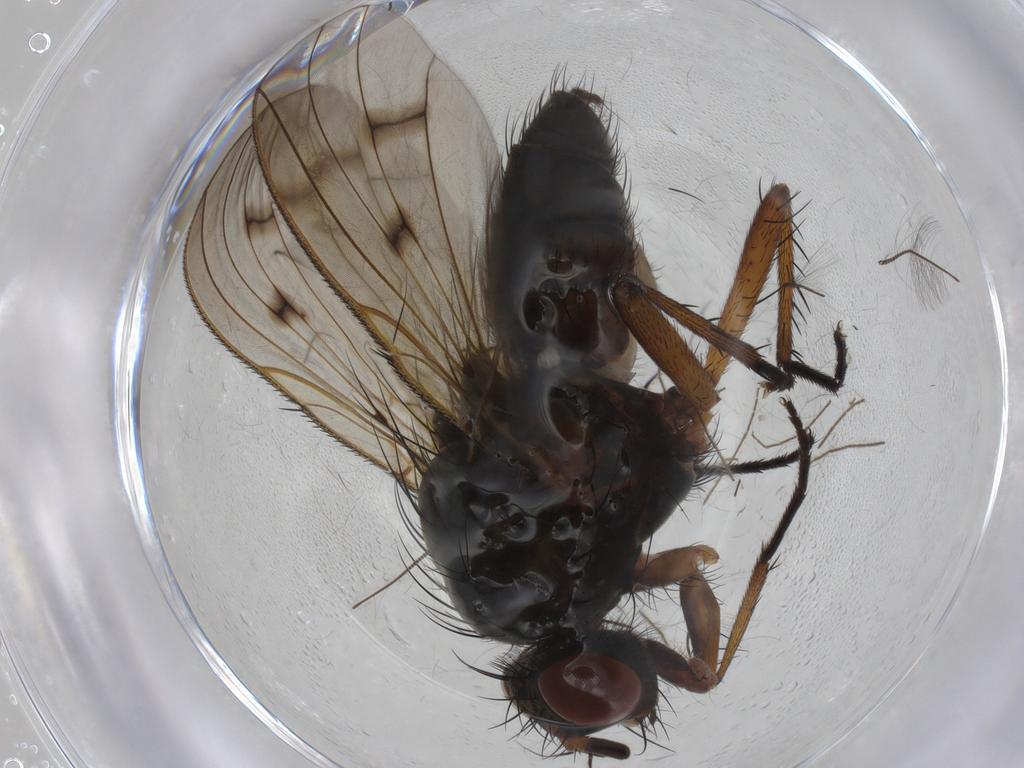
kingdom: Animalia
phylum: Arthropoda
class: Insecta
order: Diptera
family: Anthomyiidae
